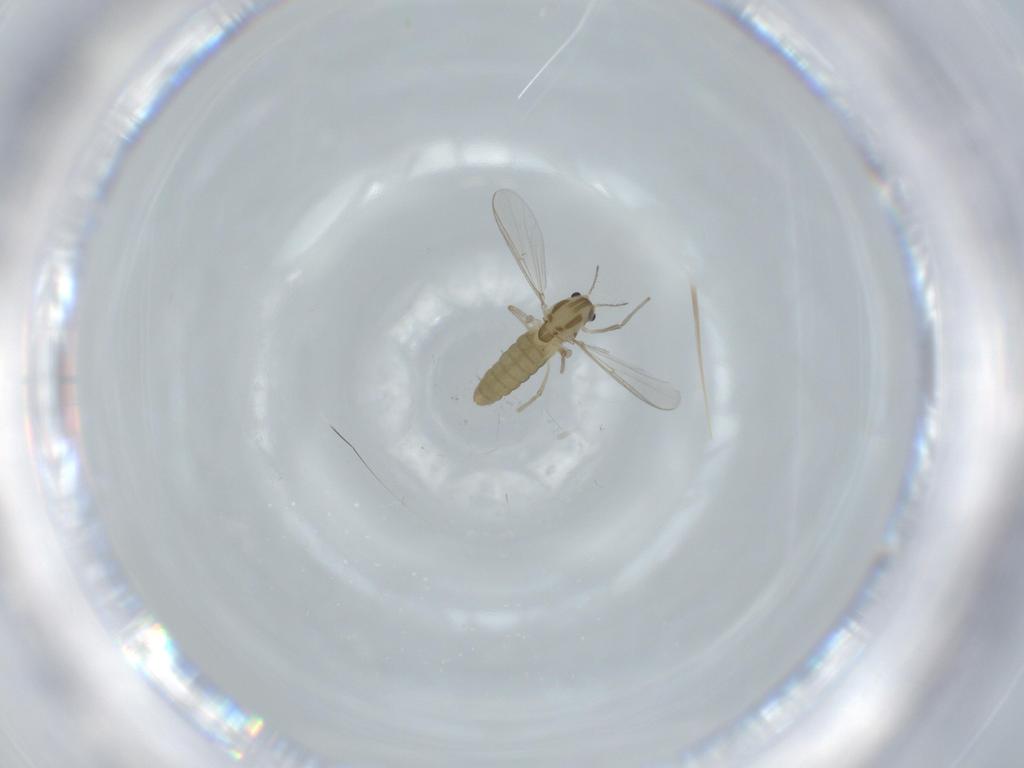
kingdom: Animalia
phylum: Arthropoda
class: Insecta
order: Diptera
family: Chironomidae
